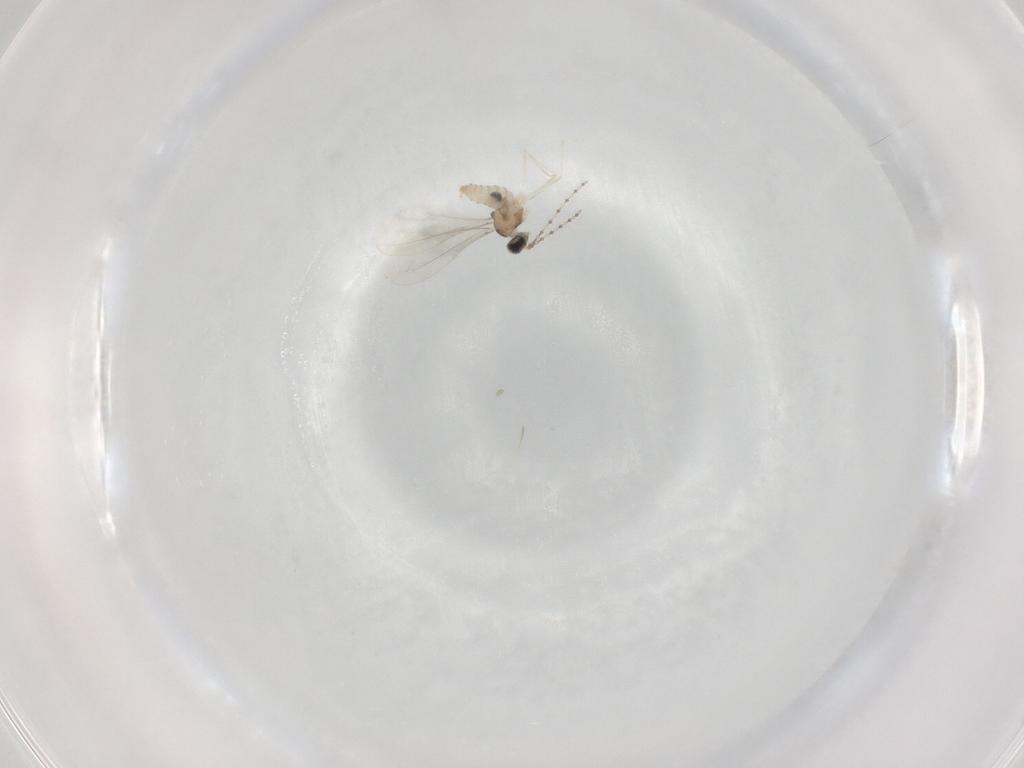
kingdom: Animalia
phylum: Arthropoda
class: Insecta
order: Diptera
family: Cecidomyiidae
